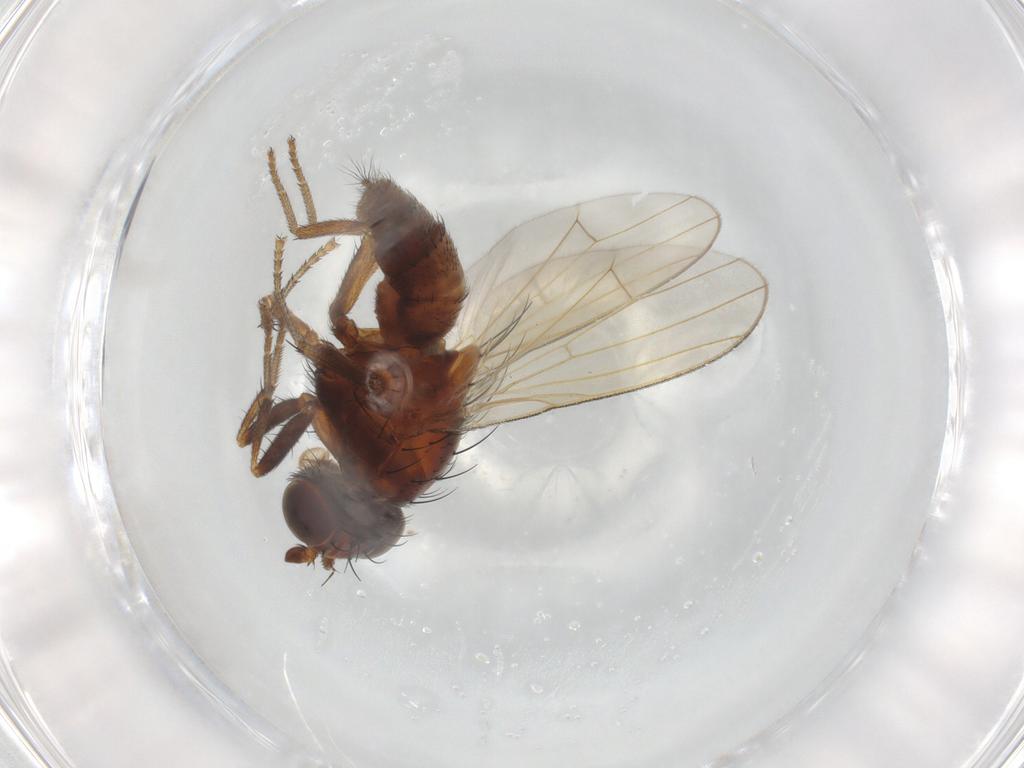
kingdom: Animalia
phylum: Arthropoda
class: Insecta
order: Diptera
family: Lauxaniidae
